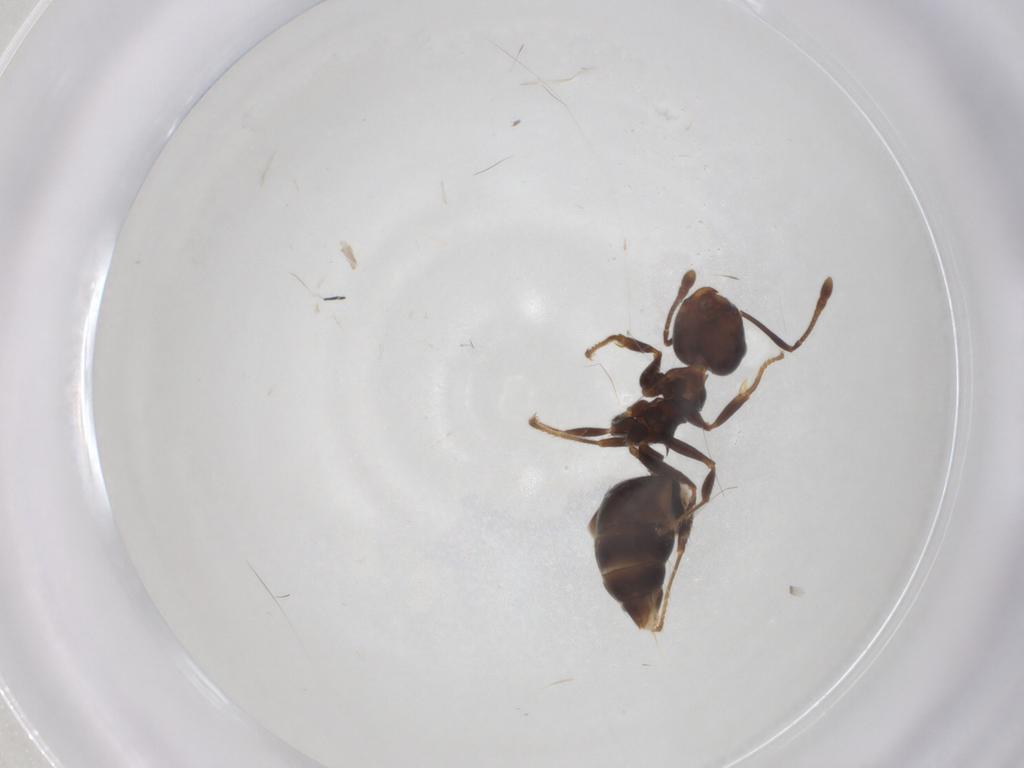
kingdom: Animalia
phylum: Arthropoda
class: Insecta
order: Hymenoptera
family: Formicidae
